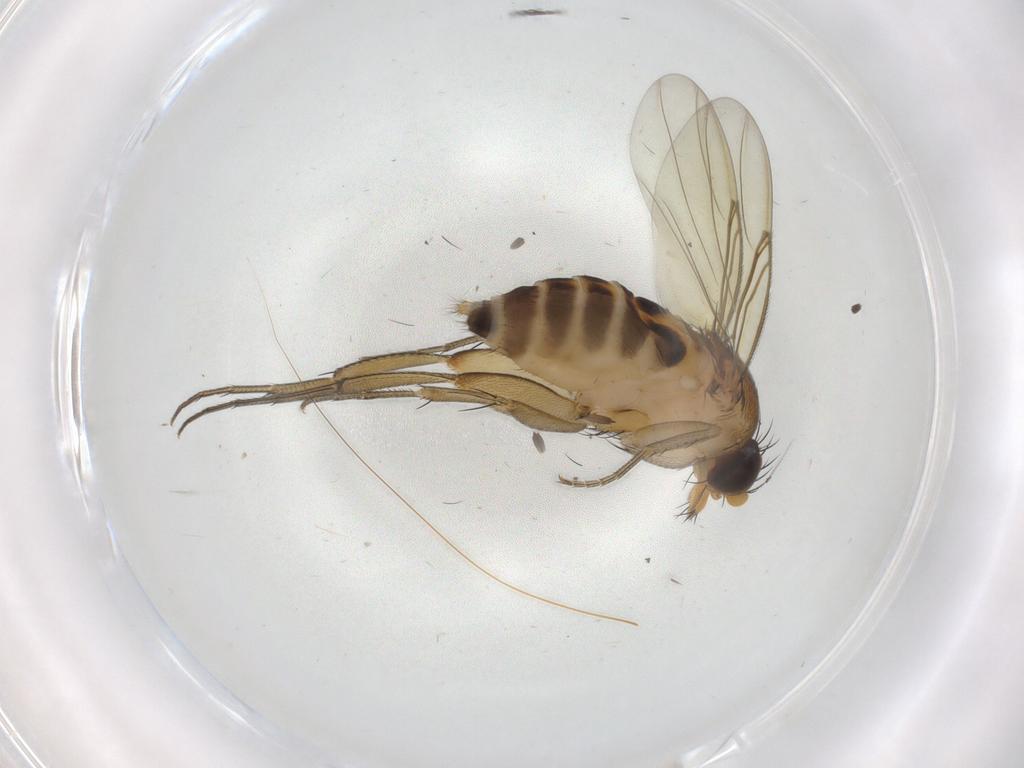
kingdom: Animalia
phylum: Arthropoda
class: Insecta
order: Diptera
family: Phoridae
